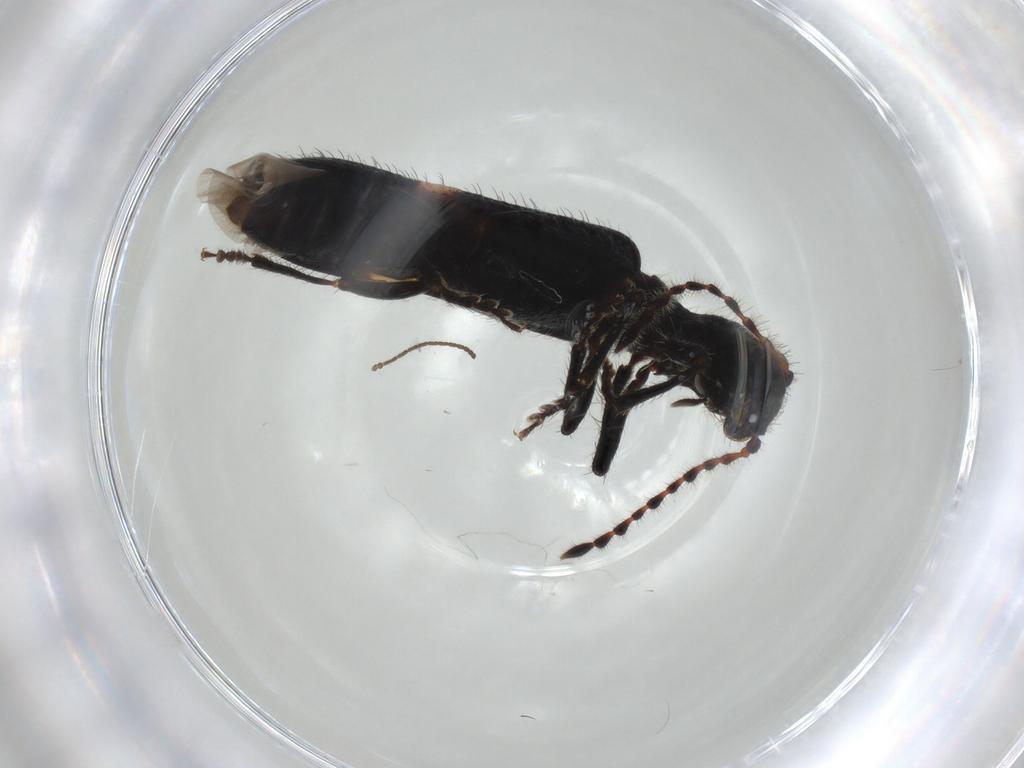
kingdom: Animalia
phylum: Arthropoda
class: Insecta
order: Coleoptera
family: Cleridae
